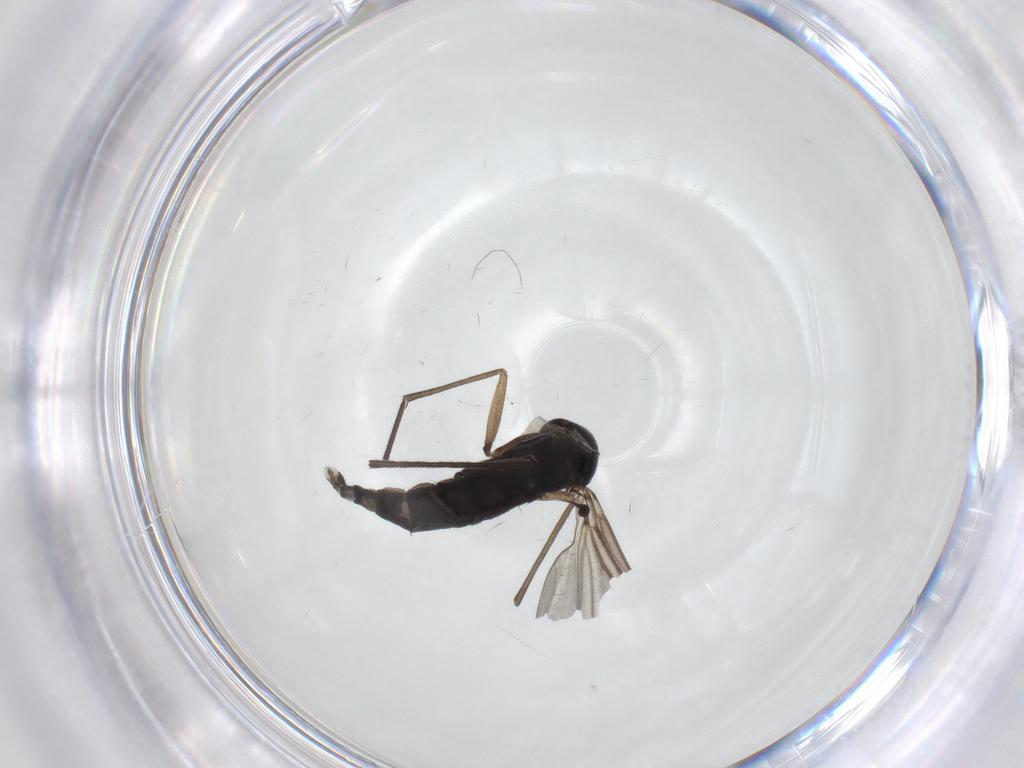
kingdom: Animalia
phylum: Arthropoda
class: Insecta
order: Diptera
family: Sciaridae
